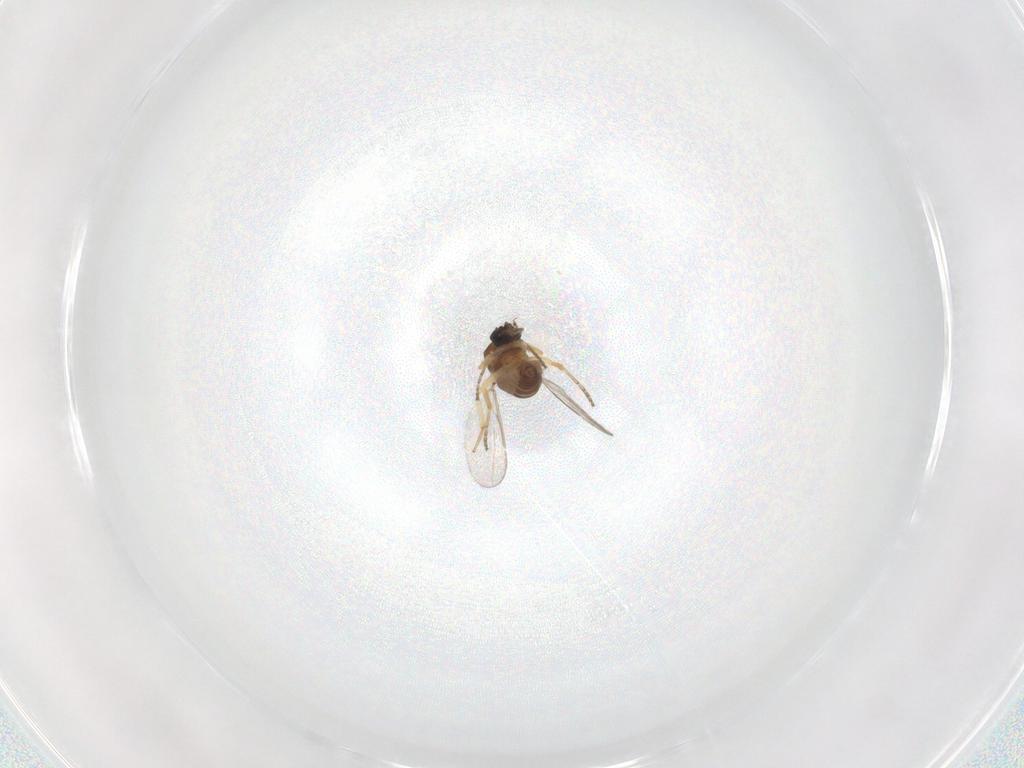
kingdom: Animalia
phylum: Arthropoda
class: Insecta
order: Diptera
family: Ceratopogonidae
